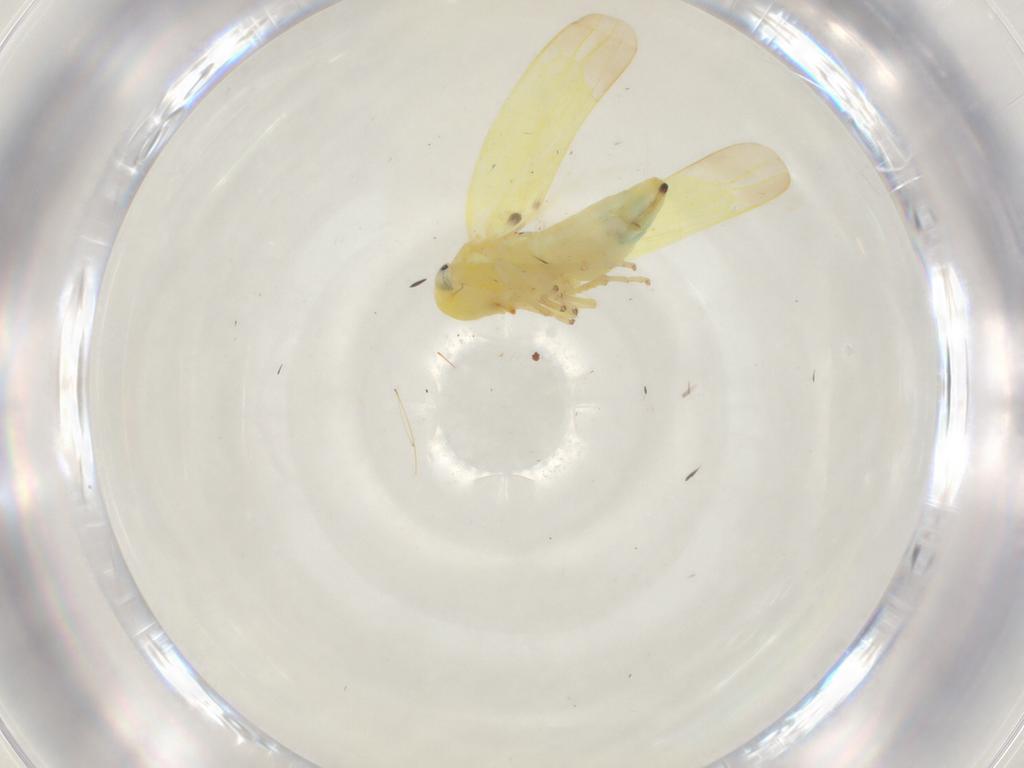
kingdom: Animalia
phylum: Arthropoda
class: Insecta
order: Hemiptera
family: Cicadellidae
